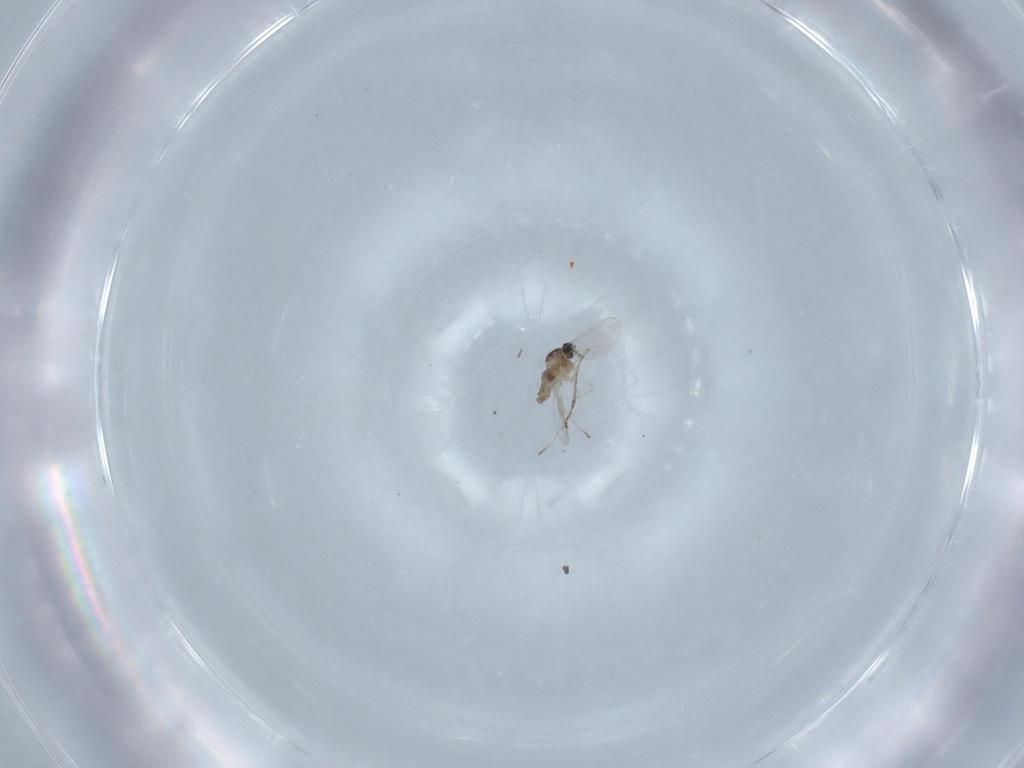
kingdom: Animalia
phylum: Arthropoda
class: Insecta
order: Diptera
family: Cecidomyiidae
